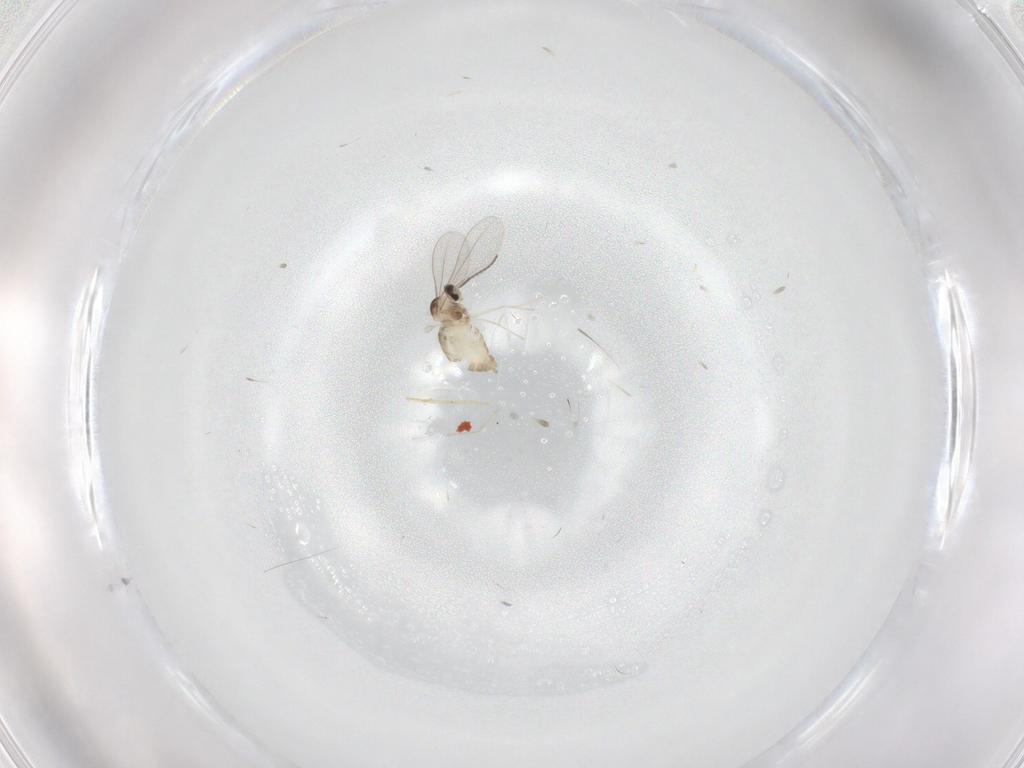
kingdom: Animalia
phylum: Arthropoda
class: Insecta
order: Diptera
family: Cecidomyiidae
